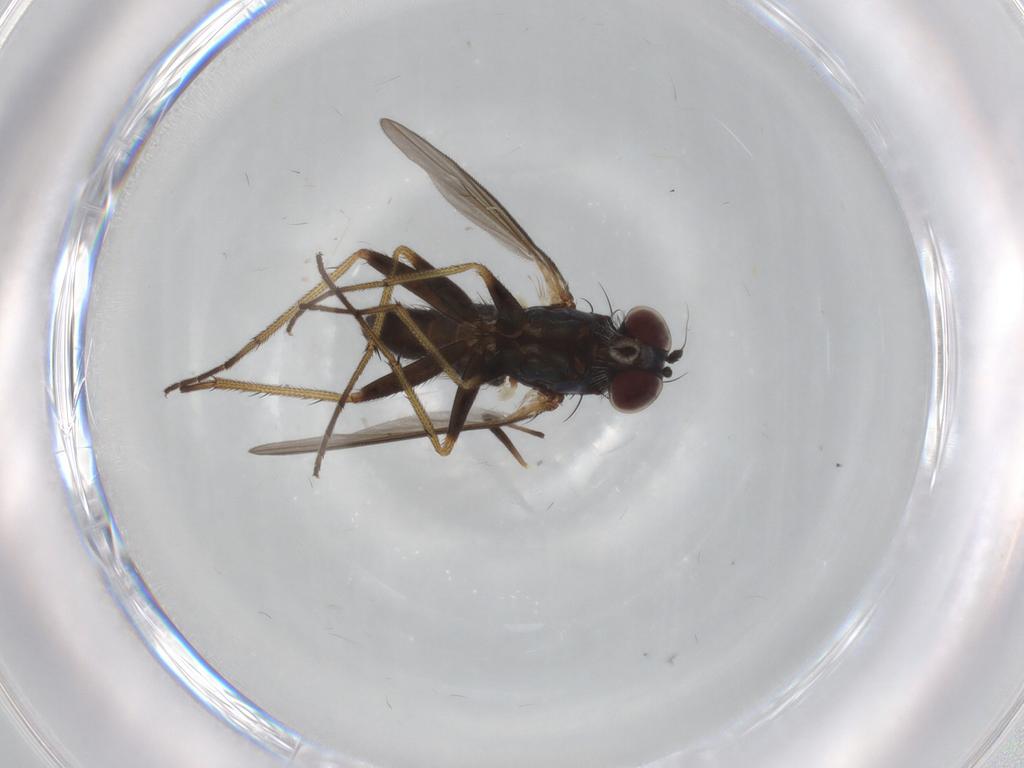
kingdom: Animalia
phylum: Arthropoda
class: Insecta
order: Diptera
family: Dolichopodidae
